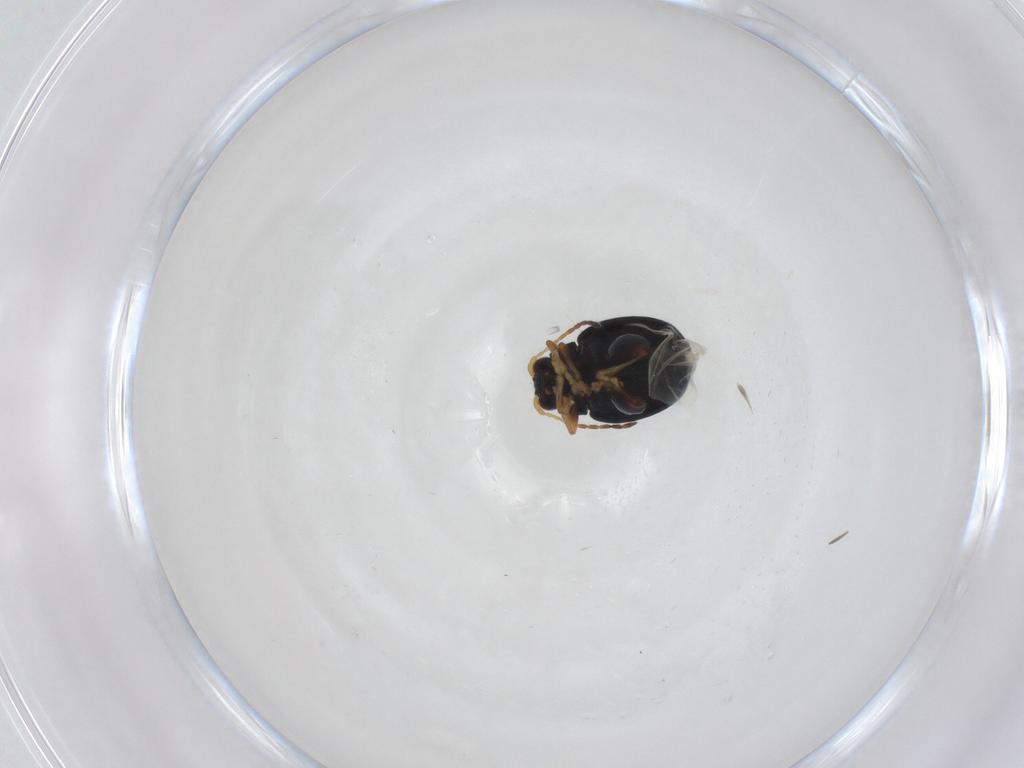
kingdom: Animalia
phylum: Arthropoda
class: Insecta
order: Coleoptera
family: Chrysomelidae
